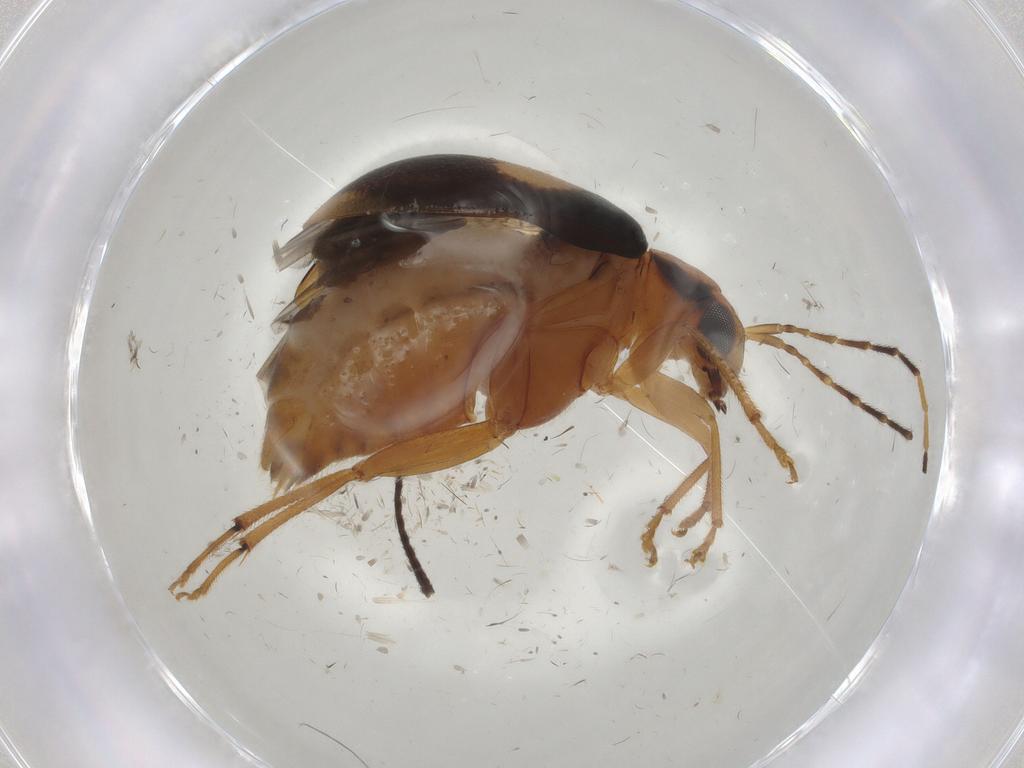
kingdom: Animalia
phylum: Arthropoda
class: Insecta
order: Coleoptera
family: Chrysomelidae
